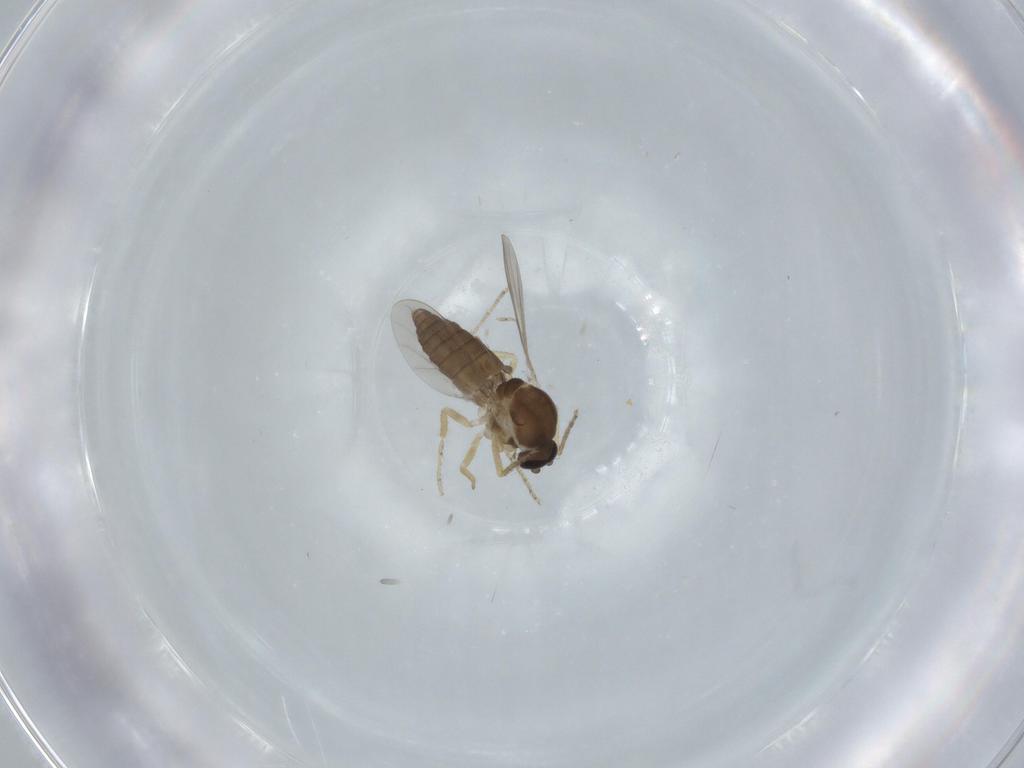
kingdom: Animalia
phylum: Arthropoda
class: Insecta
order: Diptera
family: Ceratopogonidae
